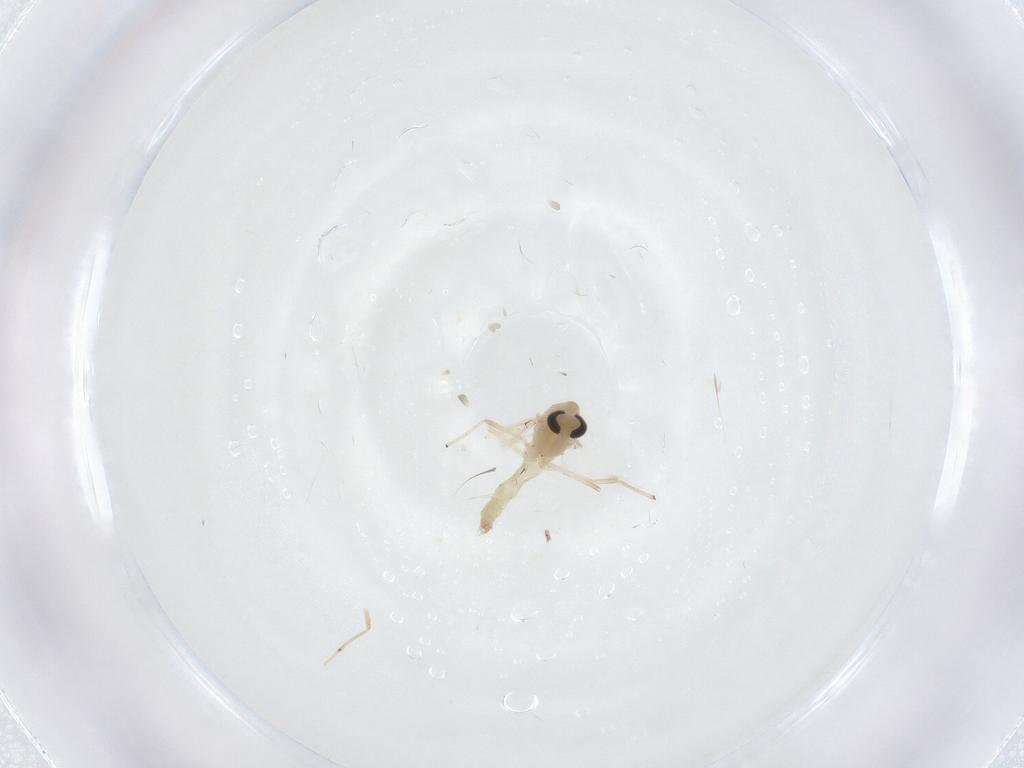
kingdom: Animalia
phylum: Arthropoda
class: Insecta
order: Diptera
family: Chironomidae
